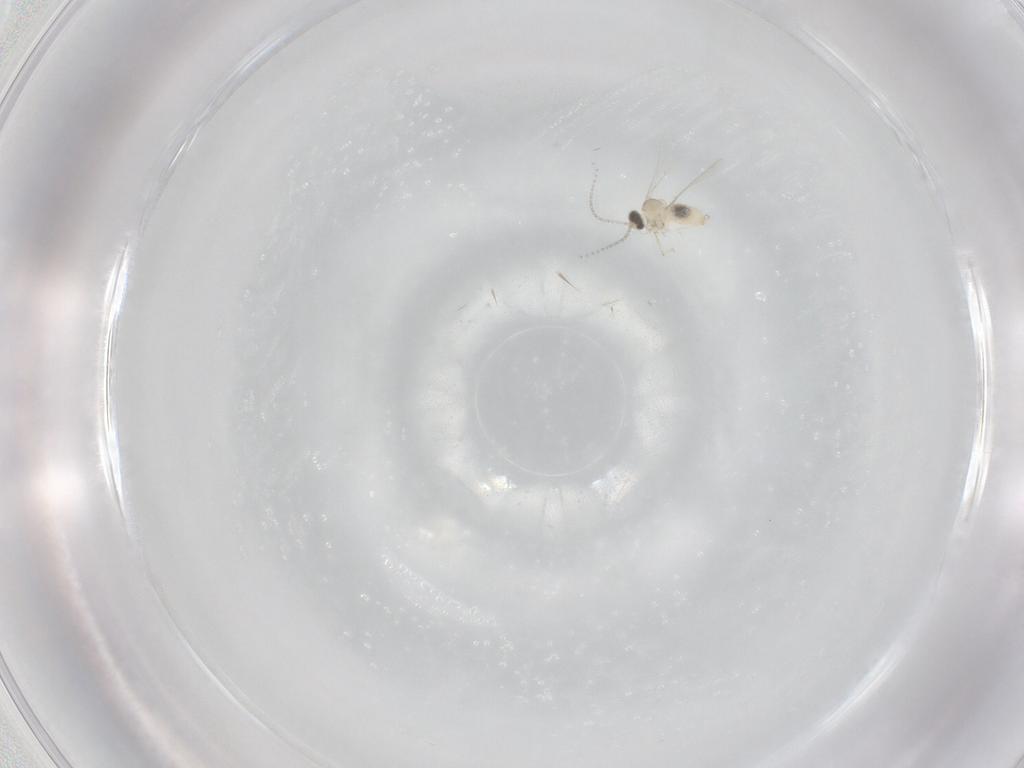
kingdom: Animalia
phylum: Arthropoda
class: Insecta
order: Diptera
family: Cecidomyiidae
